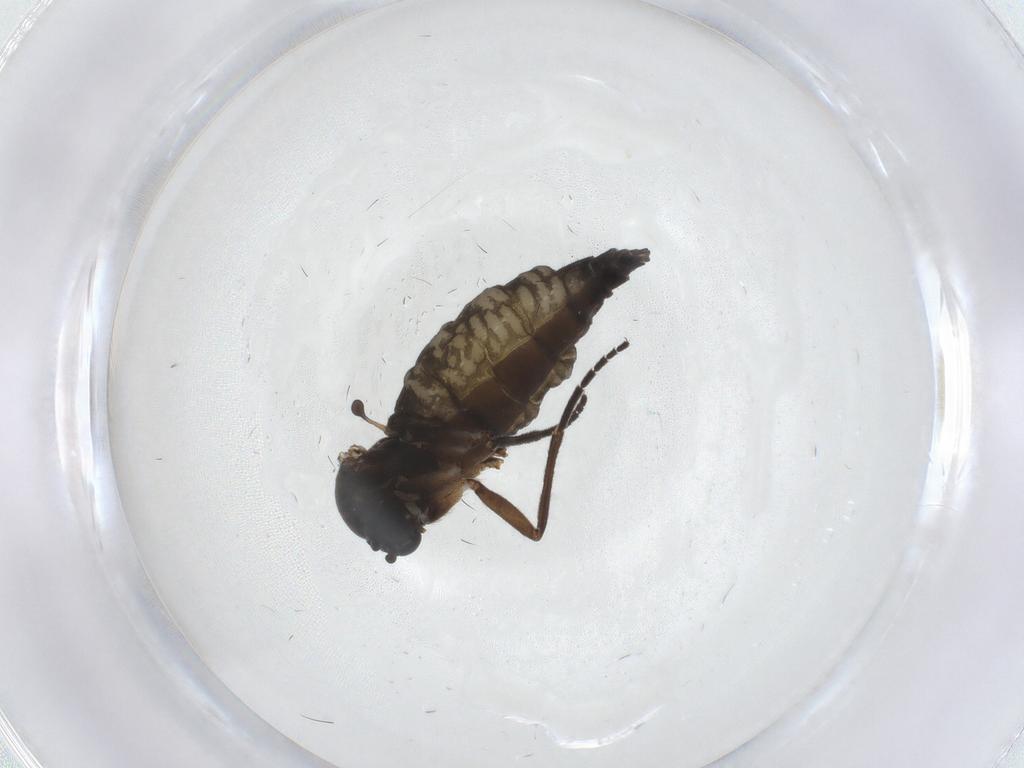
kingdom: Animalia
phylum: Arthropoda
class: Insecta
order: Diptera
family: Sciaridae
